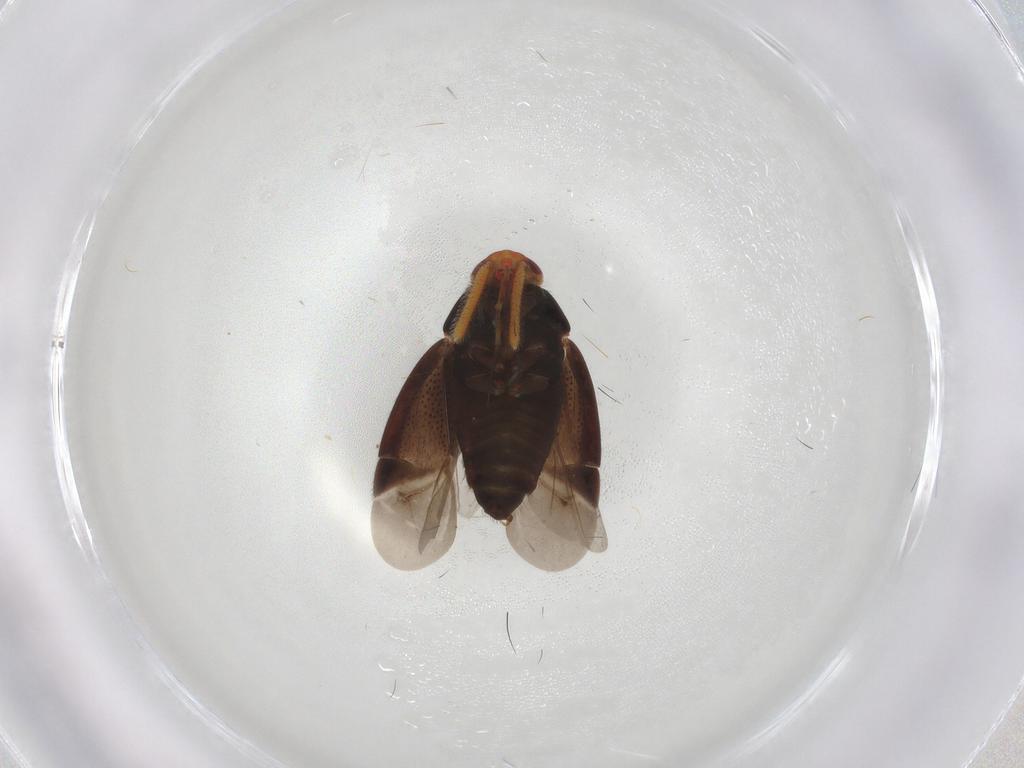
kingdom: Animalia
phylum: Arthropoda
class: Insecta
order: Hemiptera
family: Miridae
